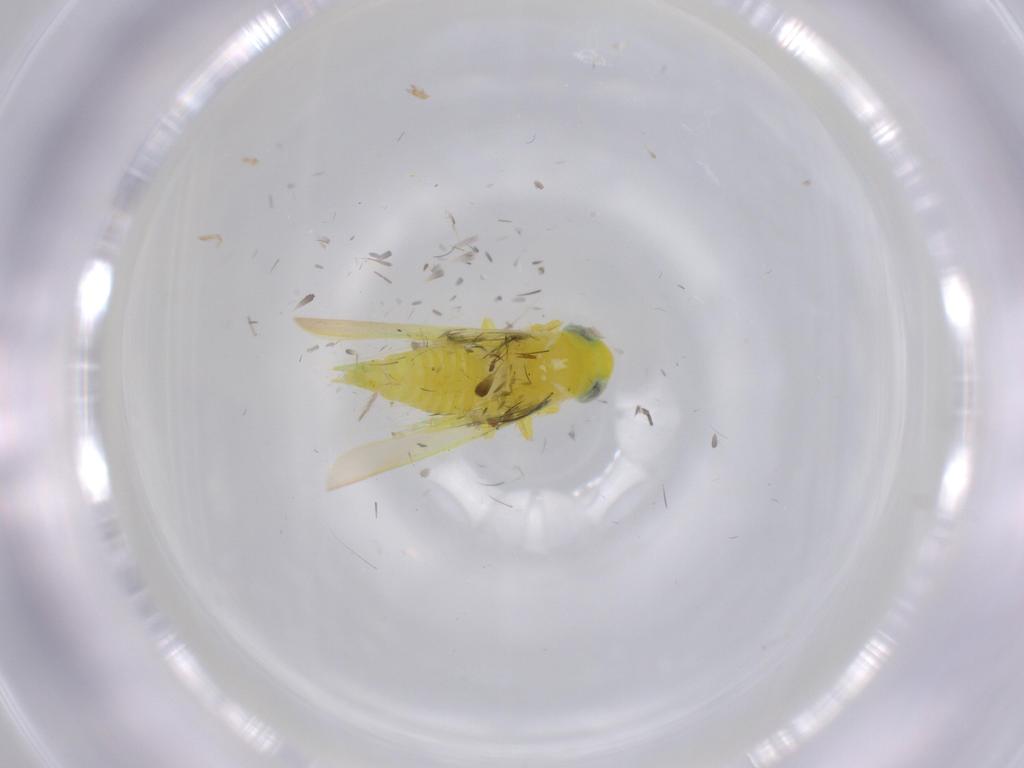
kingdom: Animalia
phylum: Arthropoda
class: Insecta
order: Hemiptera
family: Cicadellidae
